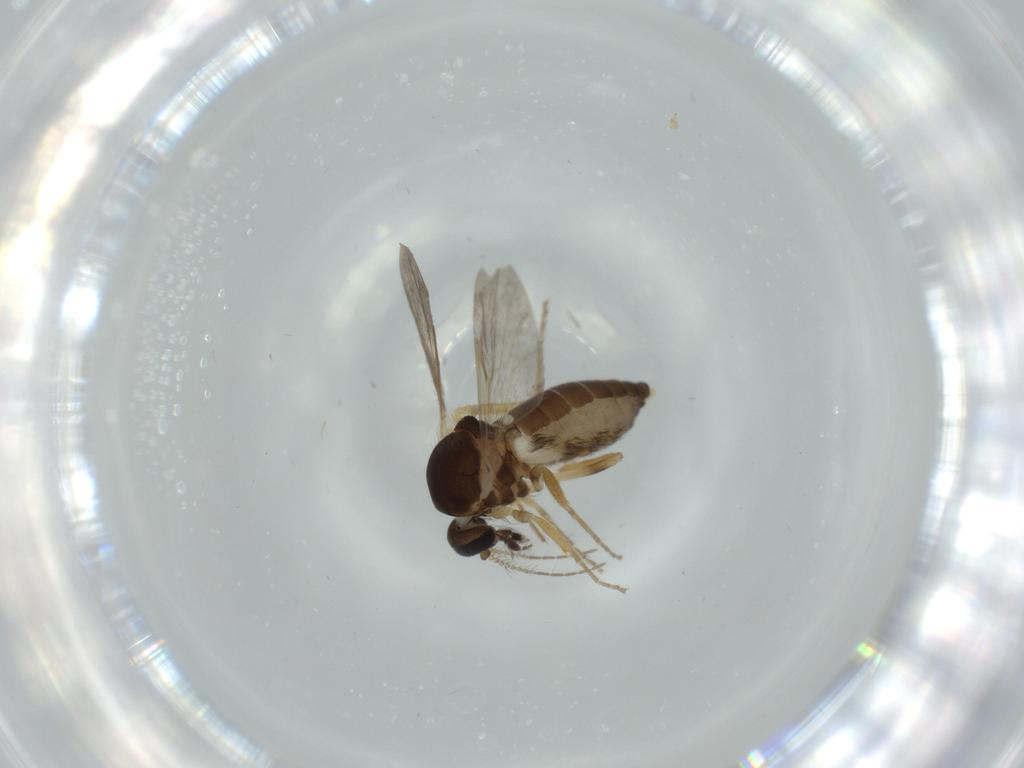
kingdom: Animalia
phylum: Arthropoda
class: Insecta
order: Diptera
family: Ceratopogonidae
